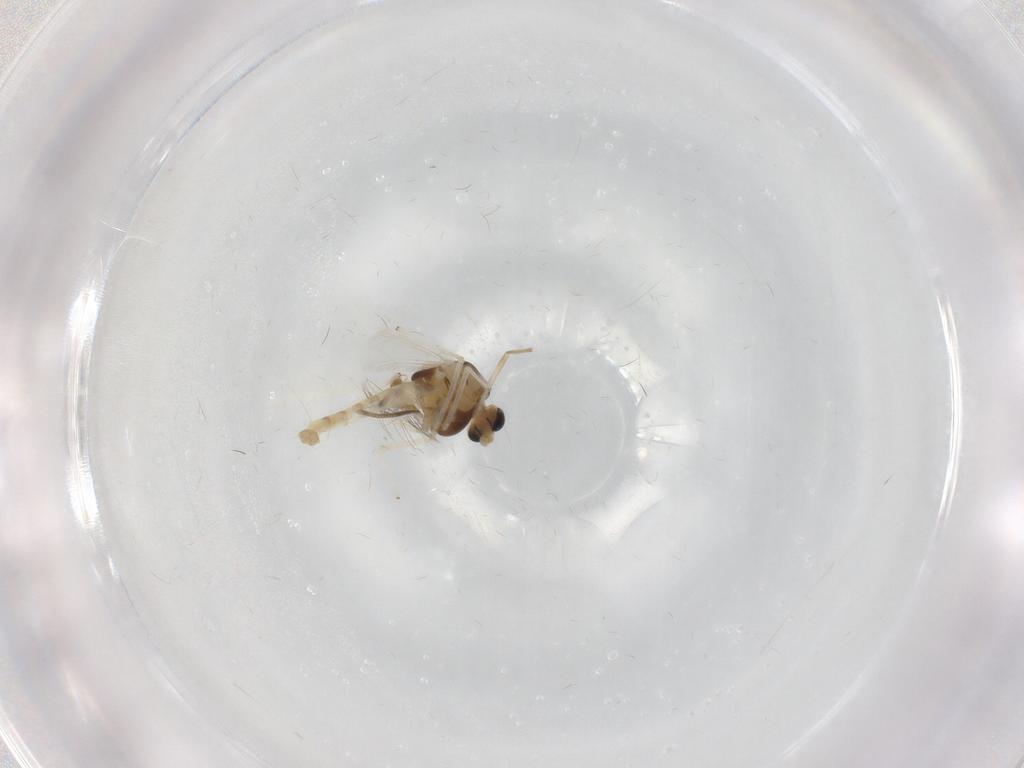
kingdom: Animalia
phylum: Arthropoda
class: Insecta
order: Diptera
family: Chironomidae
